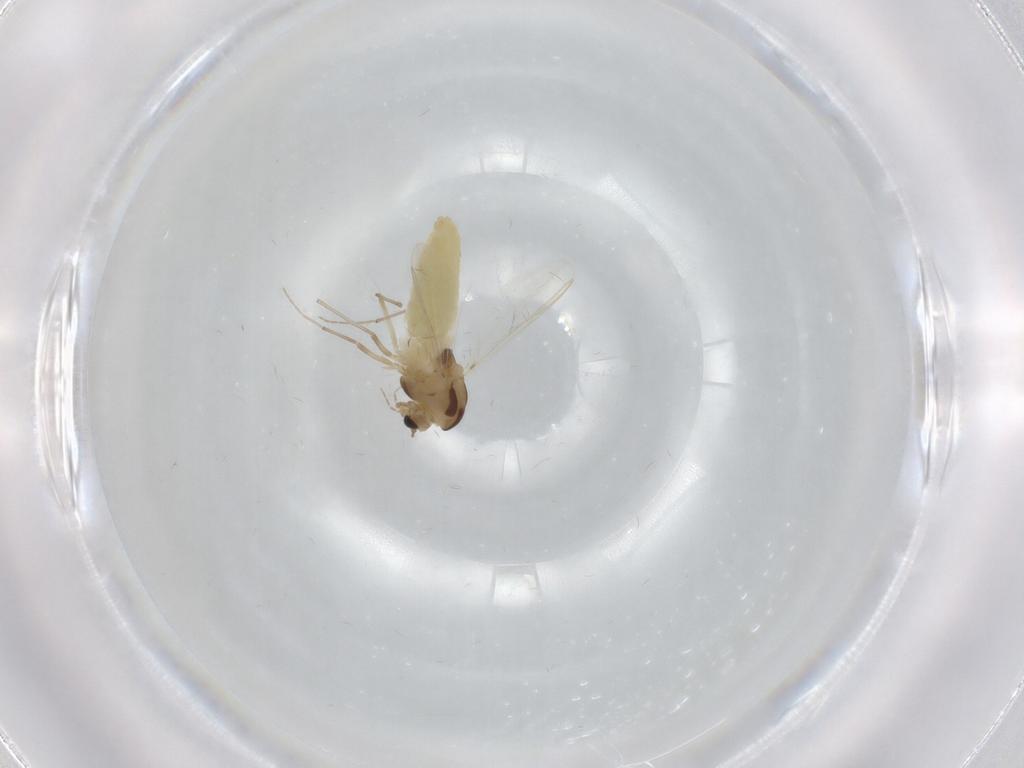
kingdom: Animalia
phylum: Arthropoda
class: Insecta
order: Diptera
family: Chironomidae
